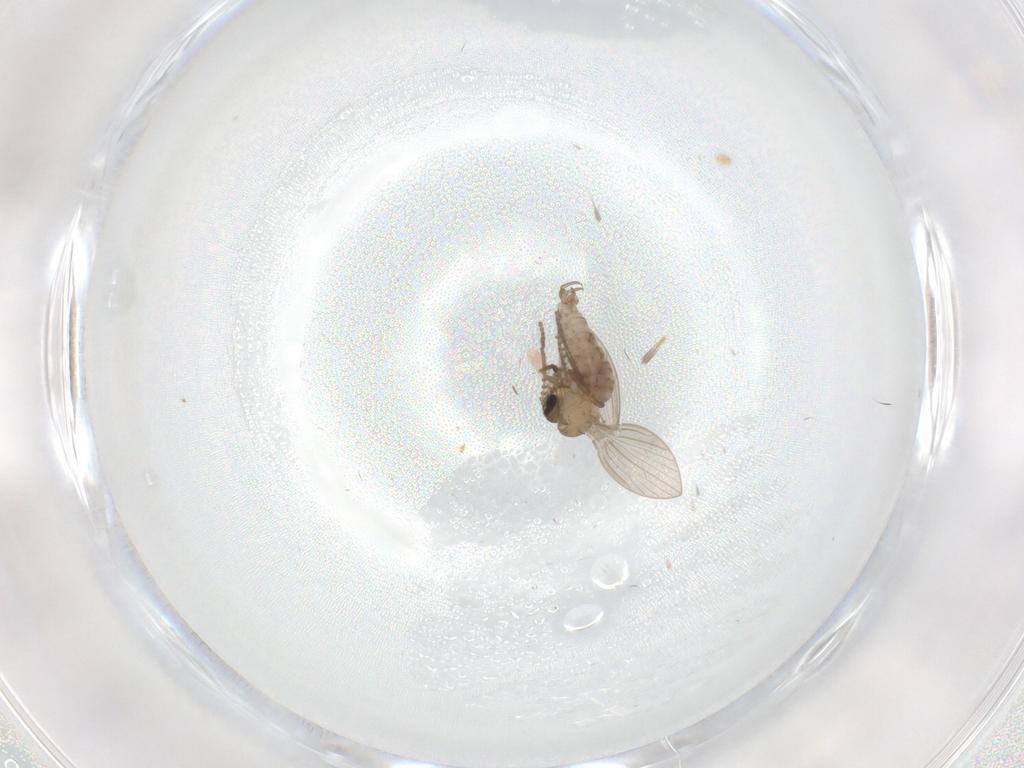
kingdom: Animalia
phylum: Arthropoda
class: Insecta
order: Diptera
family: Psychodidae
